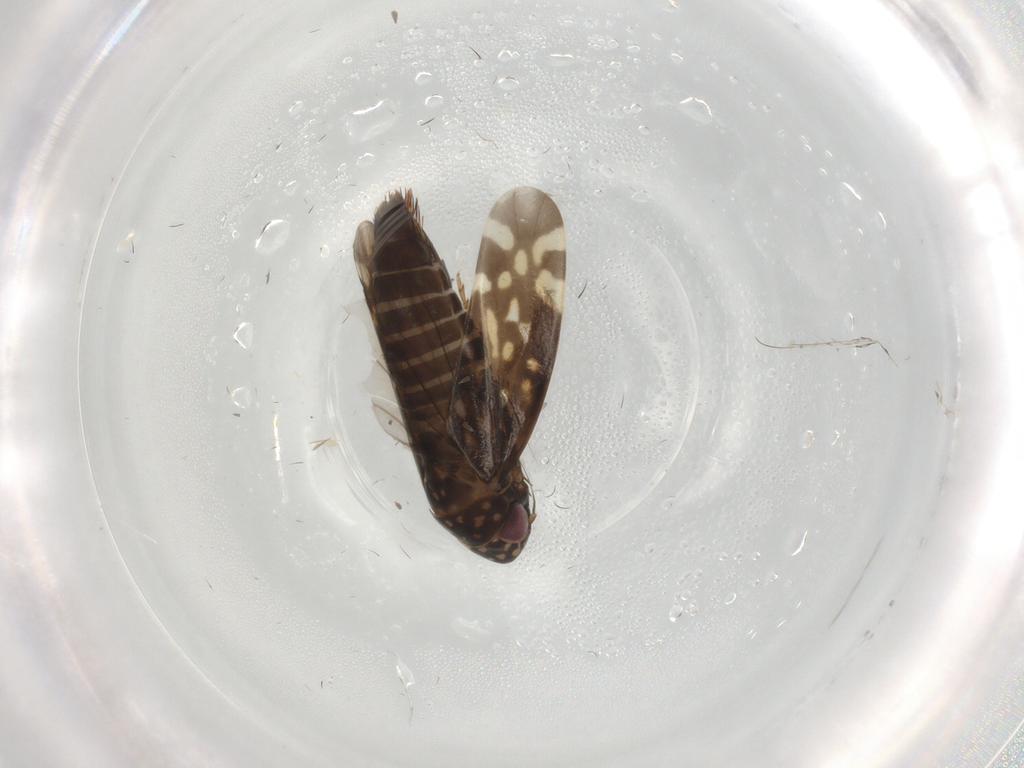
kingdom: Animalia
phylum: Arthropoda
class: Insecta
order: Hemiptera
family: Cicadellidae
